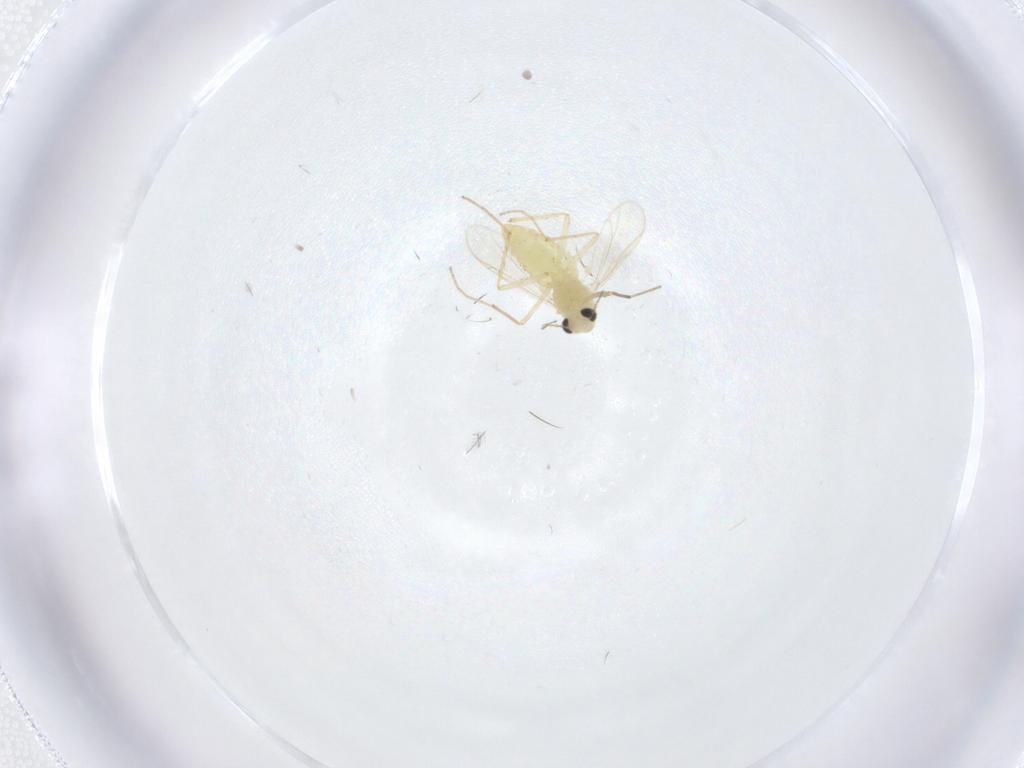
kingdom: Animalia
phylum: Arthropoda
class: Insecta
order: Diptera
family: Chironomidae
